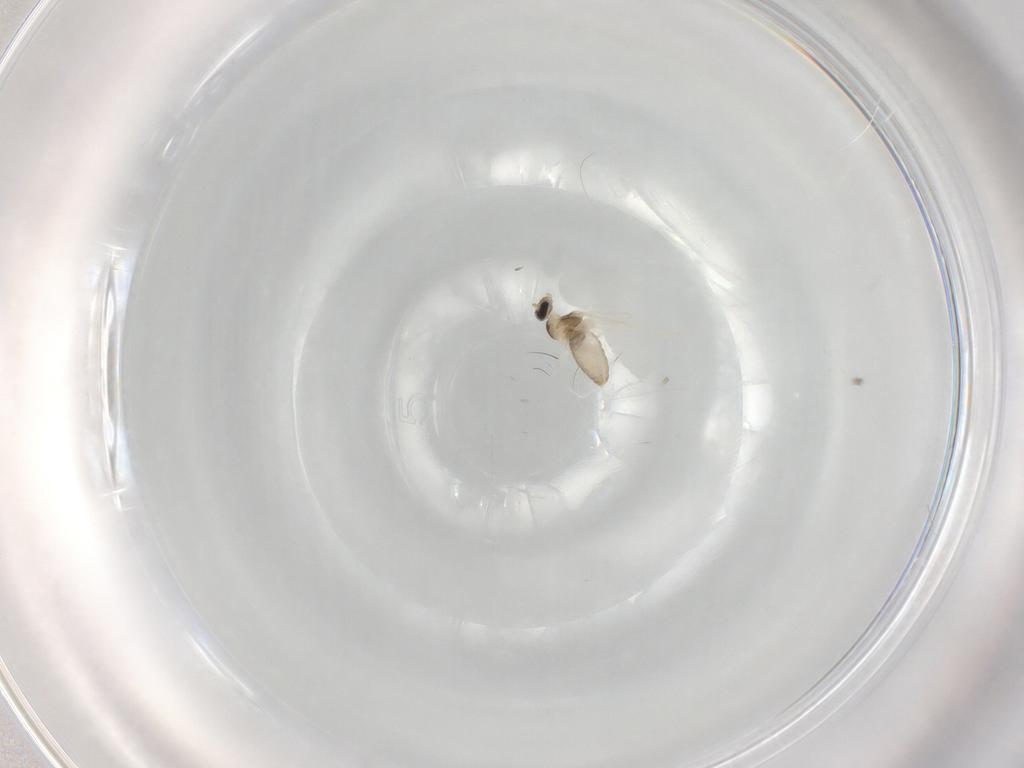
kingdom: Animalia
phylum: Arthropoda
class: Insecta
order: Diptera
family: Cecidomyiidae
